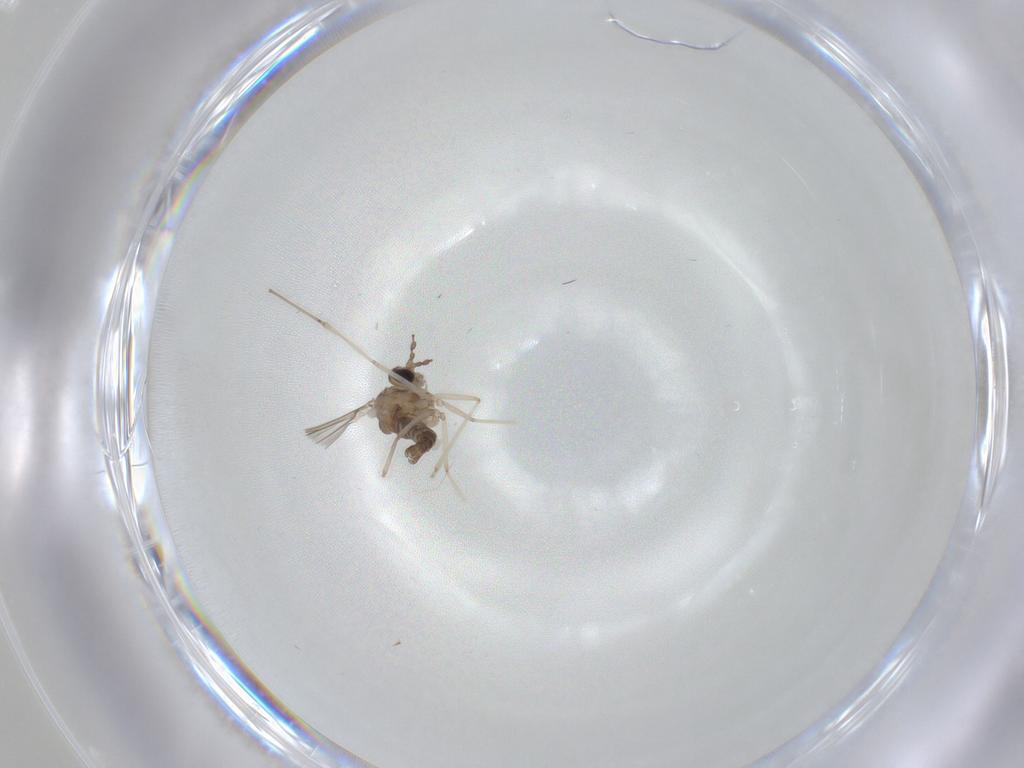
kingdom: Animalia
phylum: Arthropoda
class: Insecta
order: Diptera
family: Cecidomyiidae
